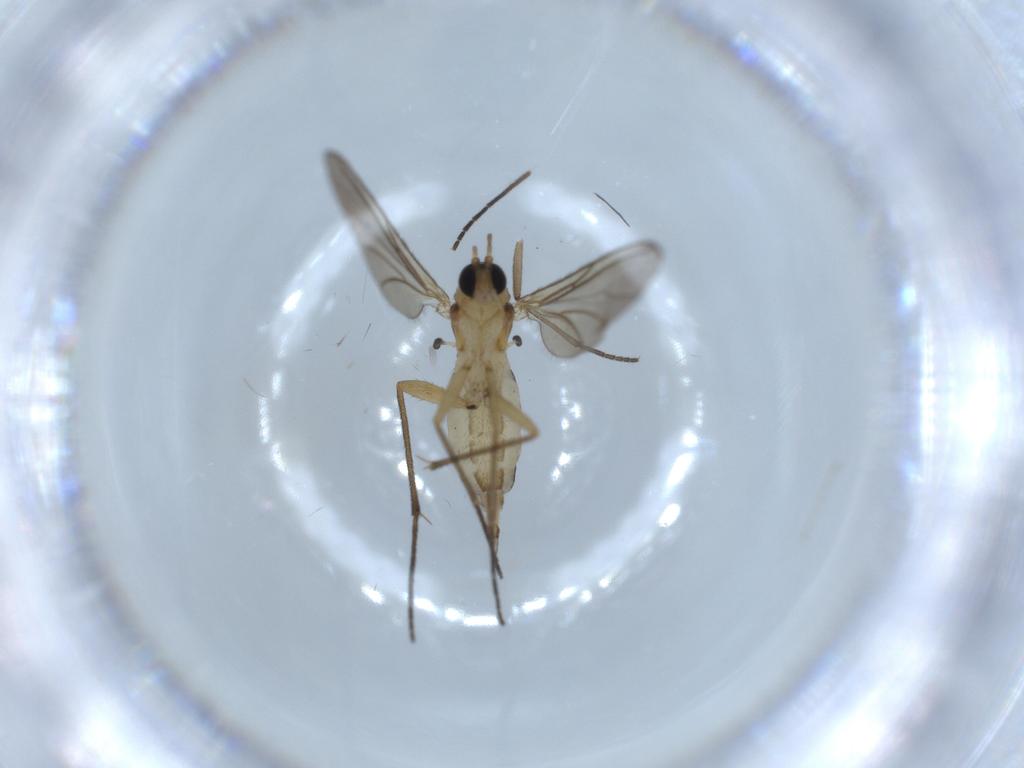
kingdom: Animalia
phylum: Arthropoda
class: Insecta
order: Diptera
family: Sciaridae
